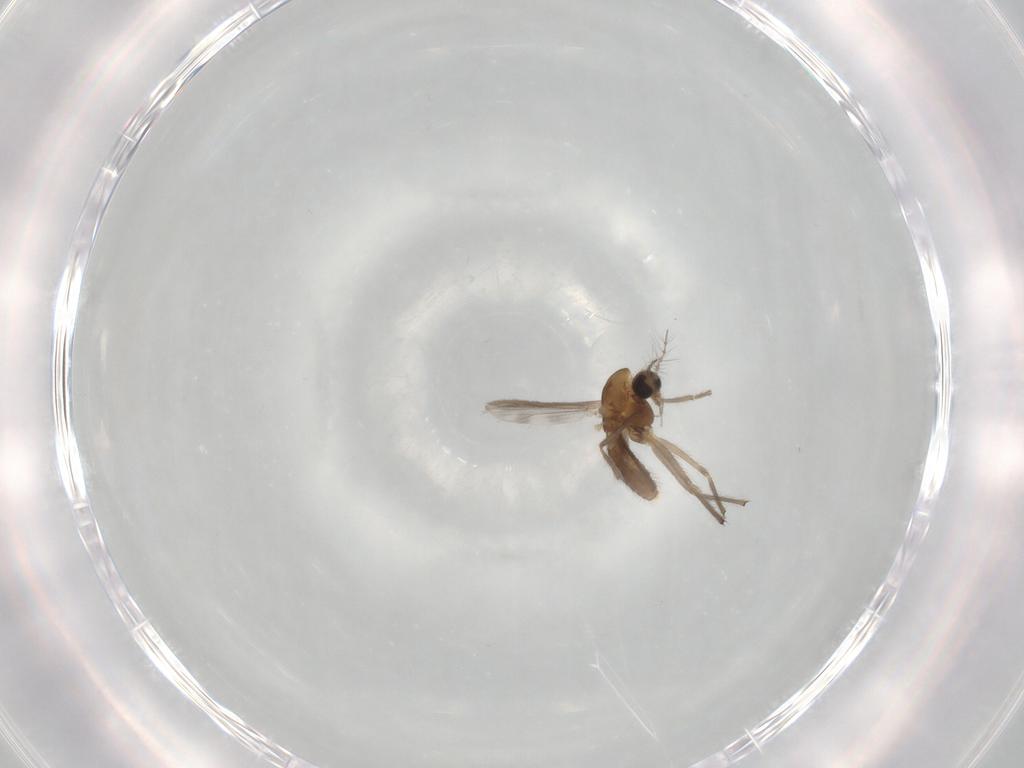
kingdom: Animalia
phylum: Arthropoda
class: Insecta
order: Diptera
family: Chironomidae
